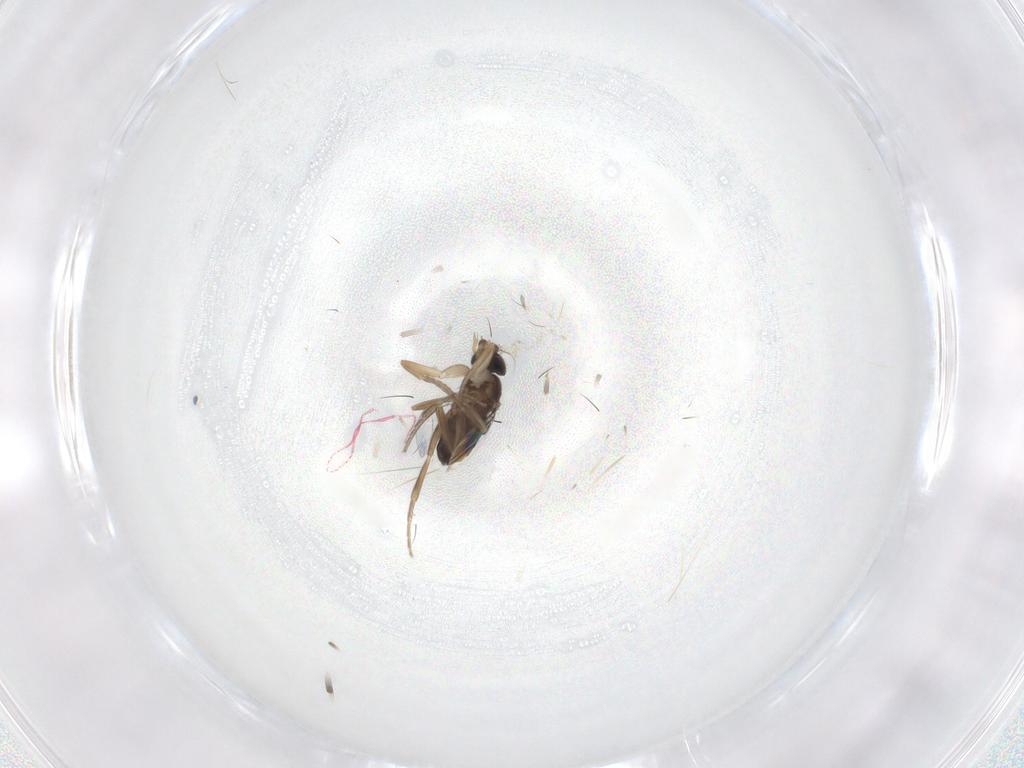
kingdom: Animalia
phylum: Arthropoda
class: Insecta
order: Diptera
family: Phoridae
